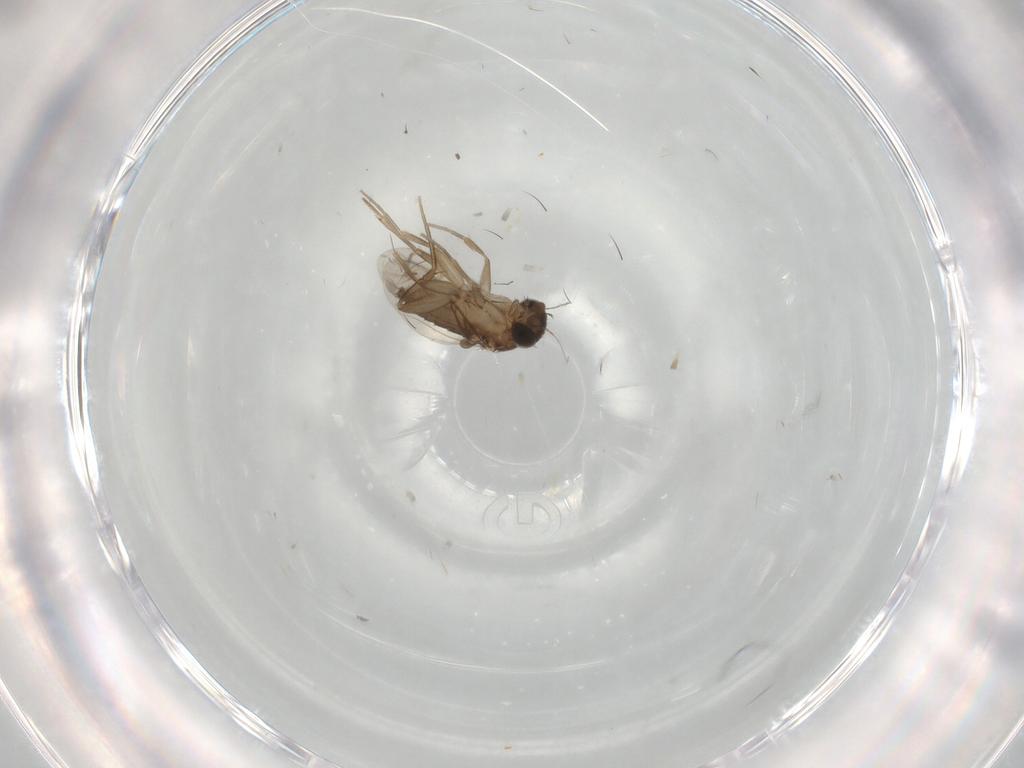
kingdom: Animalia
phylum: Arthropoda
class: Insecta
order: Diptera
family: Phoridae
